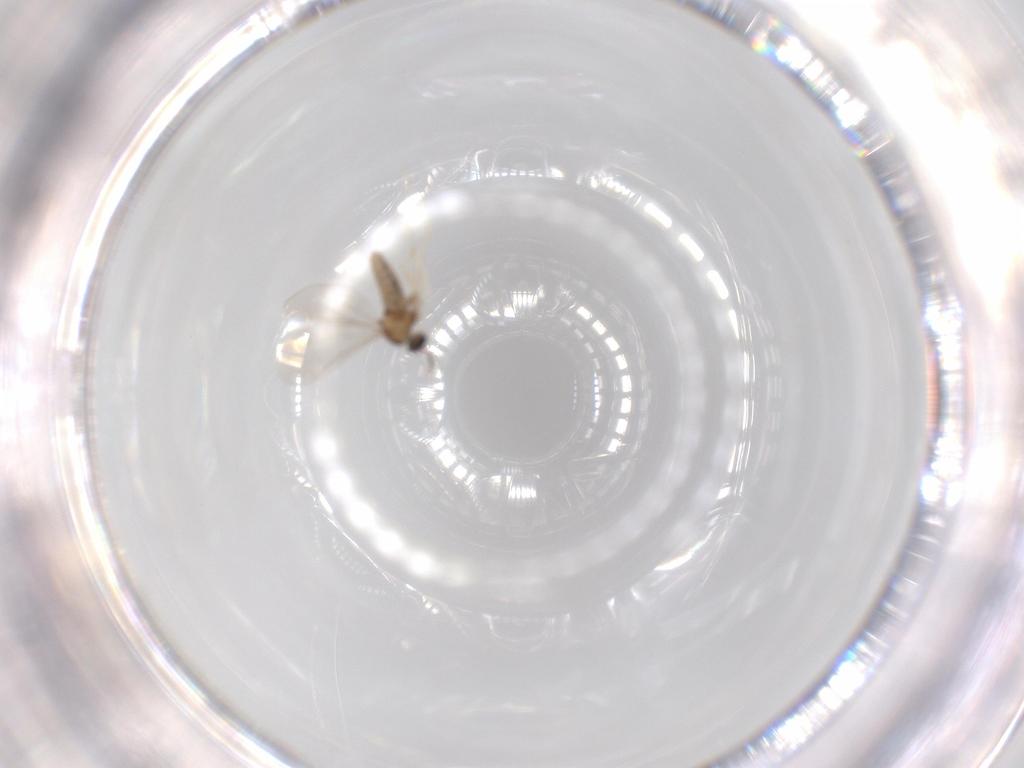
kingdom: Animalia
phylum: Arthropoda
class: Insecta
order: Diptera
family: Cecidomyiidae
